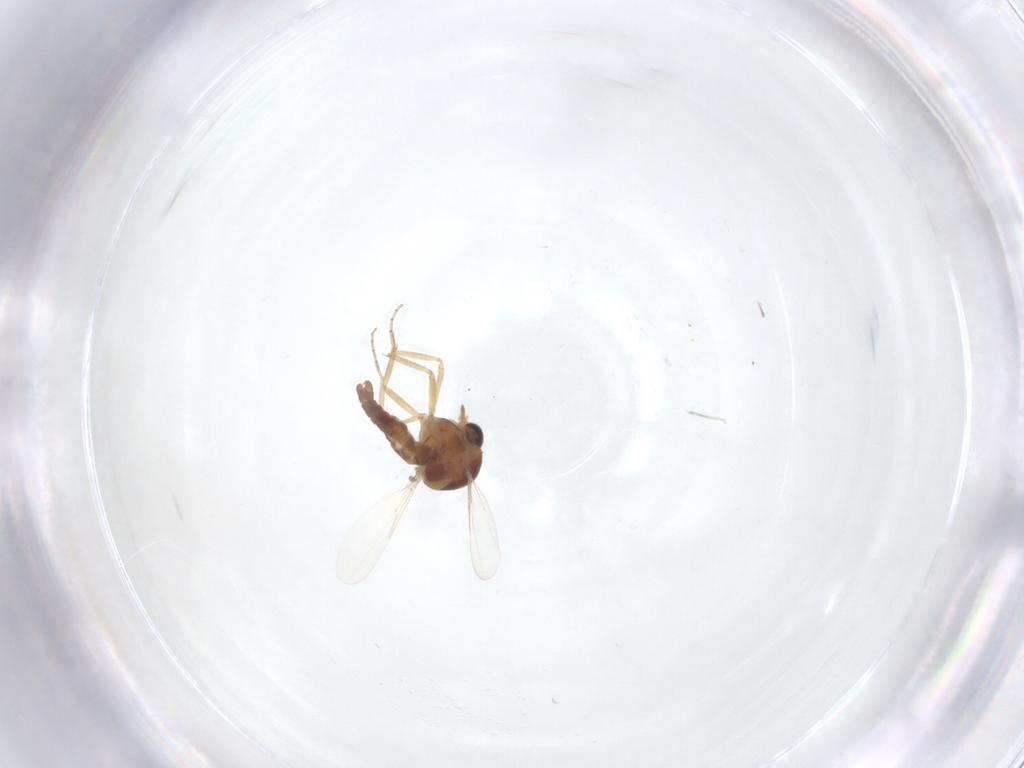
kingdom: Animalia
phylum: Arthropoda
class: Insecta
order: Diptera
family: Ceratopogonidae
